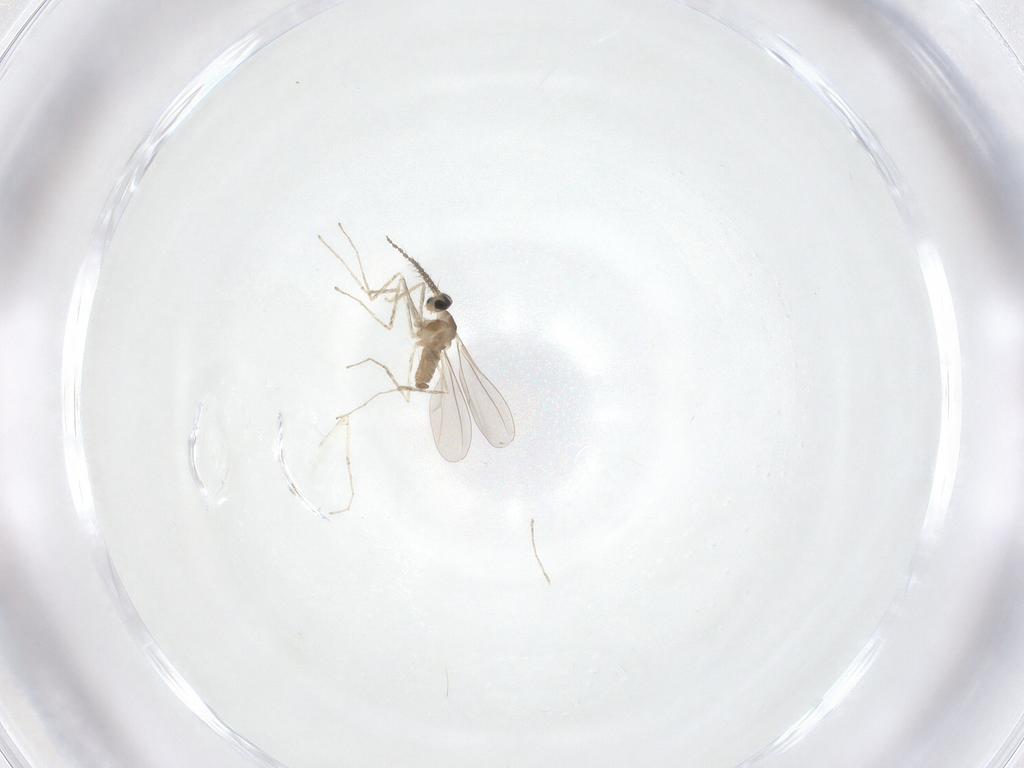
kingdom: Animalia
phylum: Arthropoda
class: Insecta
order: Diptera
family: Cecidomyiidae
